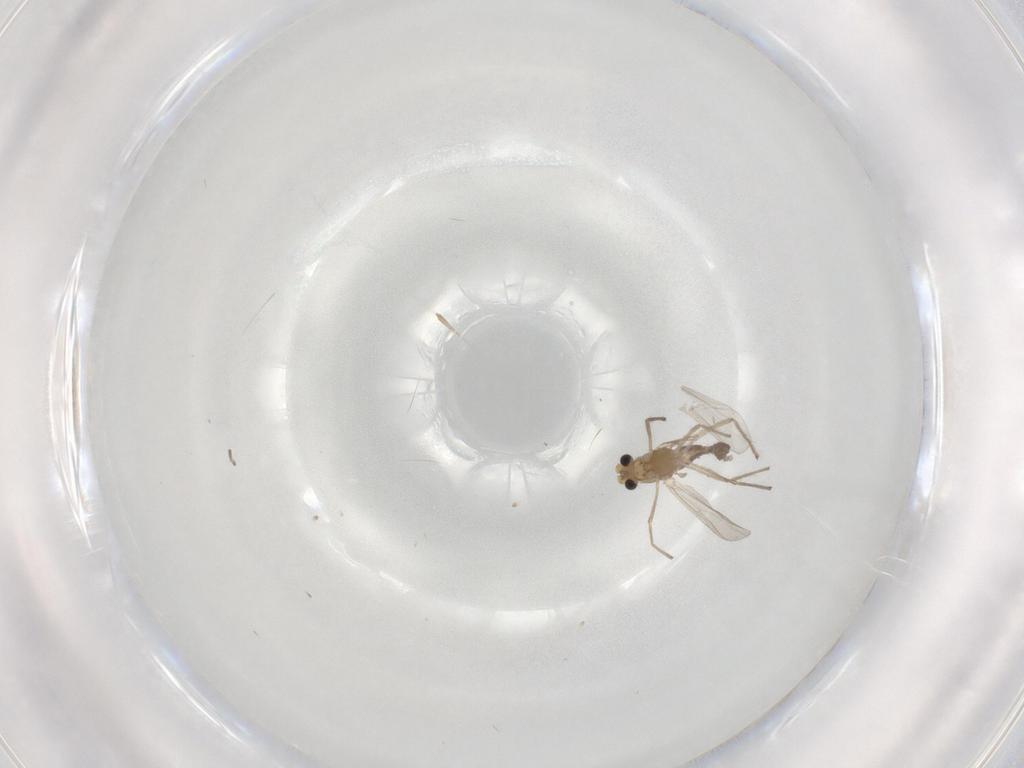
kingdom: Animalia
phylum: Arthropoda
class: Insecta
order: Diptera
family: Chironomidae
